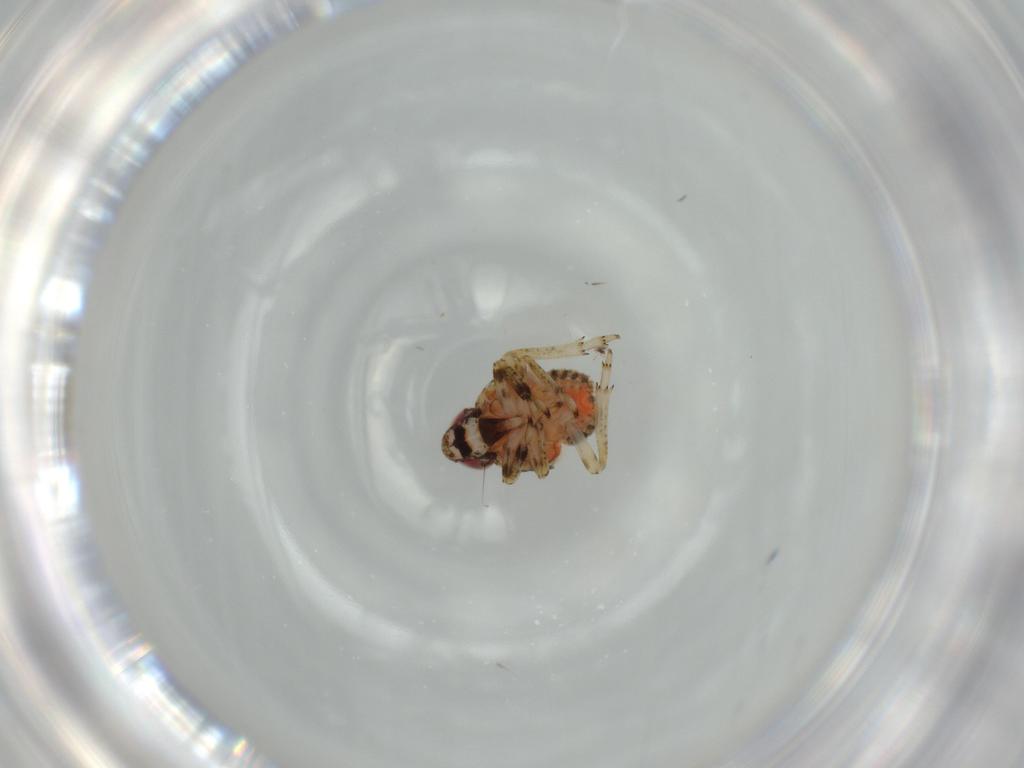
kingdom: Animalia
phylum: Arthropoda
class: Insecta
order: Hemiptera
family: Issidae
